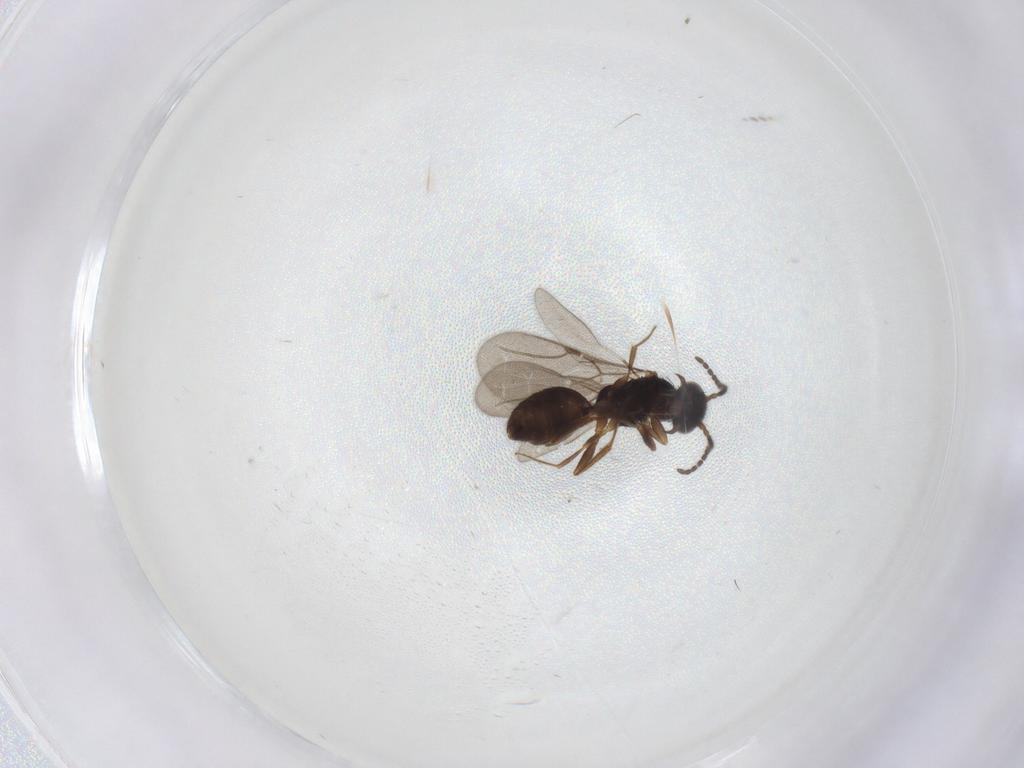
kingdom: Animalia
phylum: Arthropoda
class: Insecta
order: Hymenoptera
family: Bethylidae
